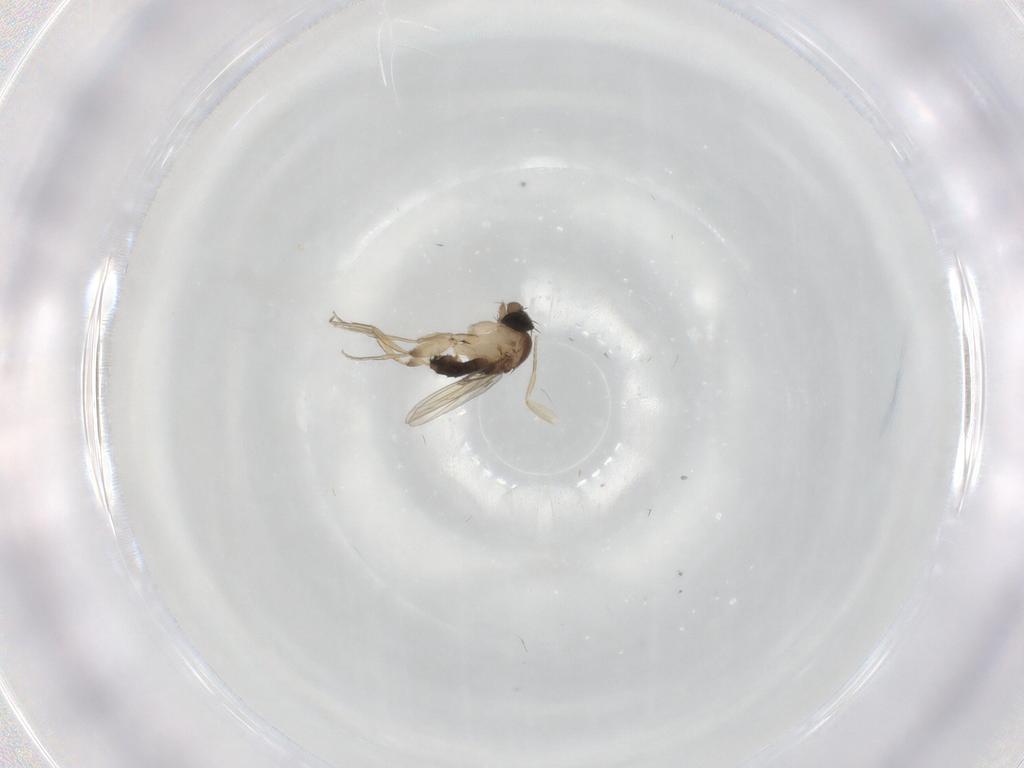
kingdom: Animalia
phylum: Arthropoda
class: Insecta
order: Diptera
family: Phoridae
